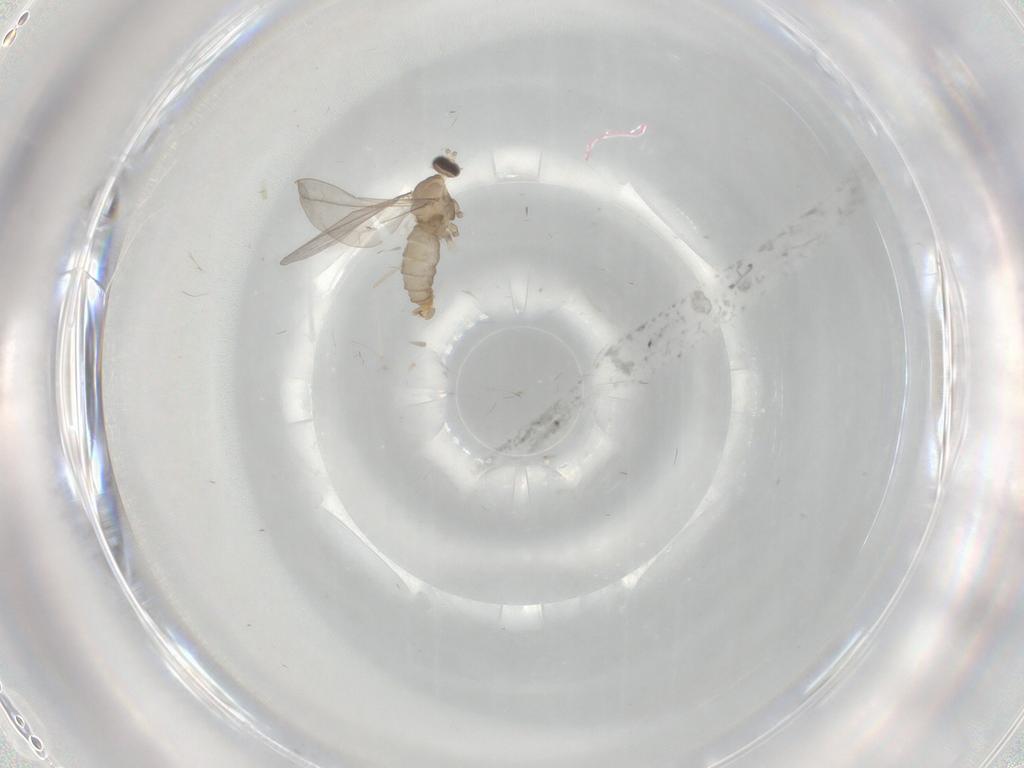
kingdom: Animalia
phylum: Arthropoda
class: Insecta
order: Diptera
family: Cecidomyiidae
